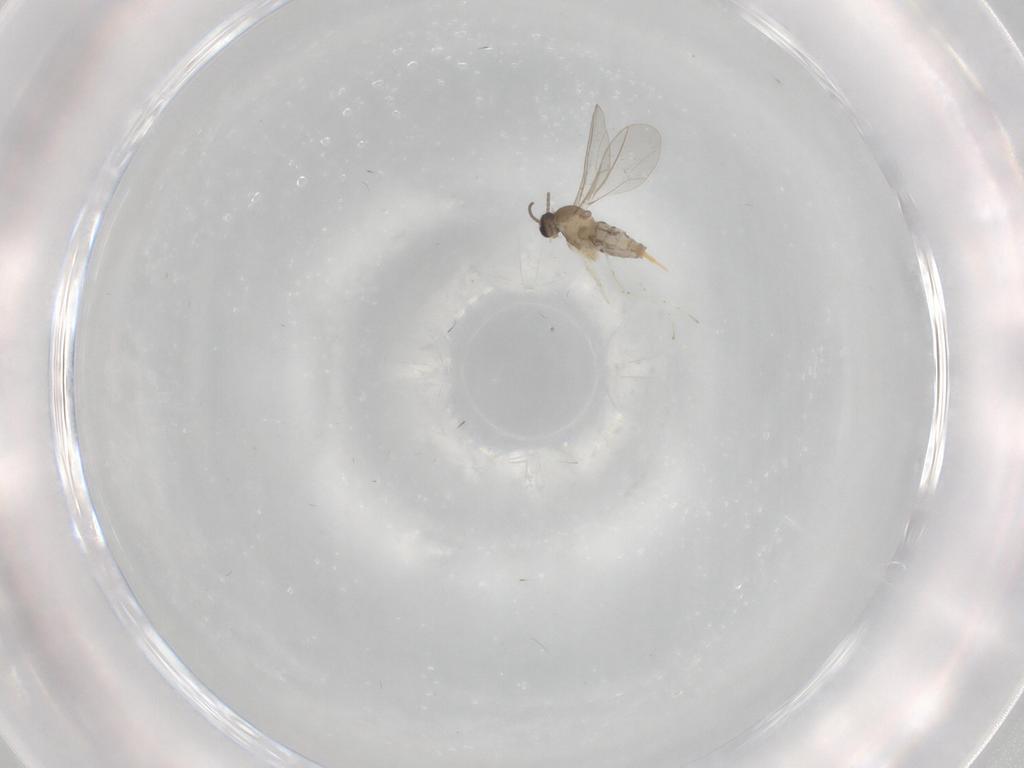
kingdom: Animalia
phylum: Arthropoda
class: Insecta
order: Diptera
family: Cecidomyiidae
